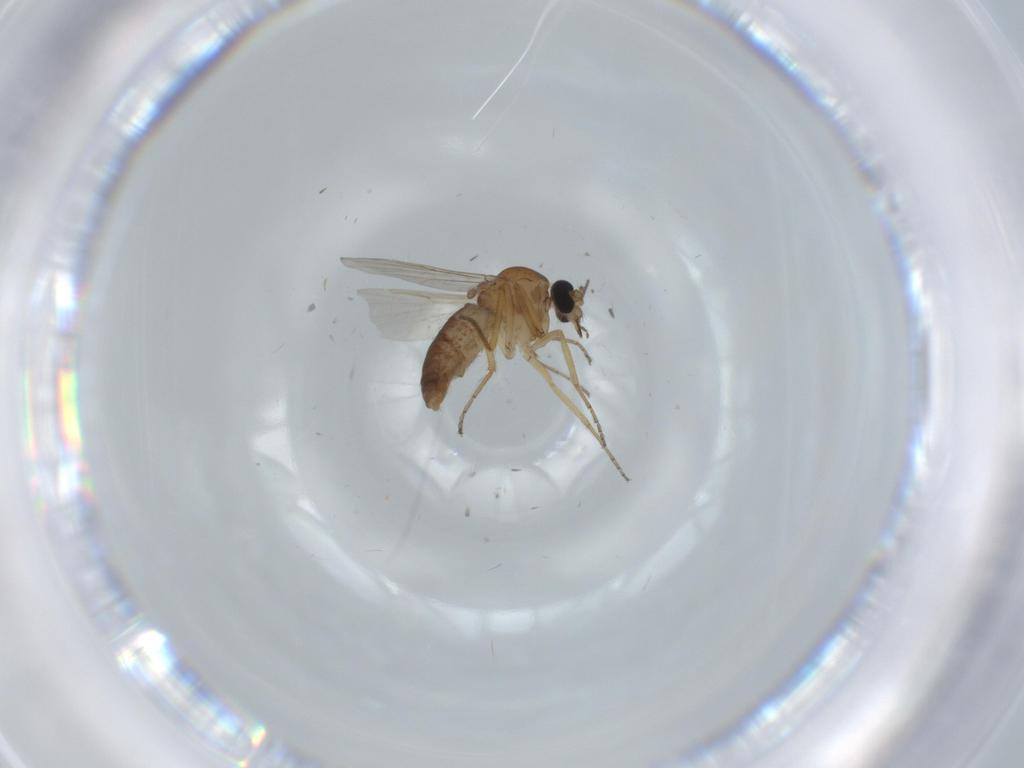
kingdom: Animalia
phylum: Arthropoda
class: Insecta
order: Diptera
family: Ceratopogonidae
